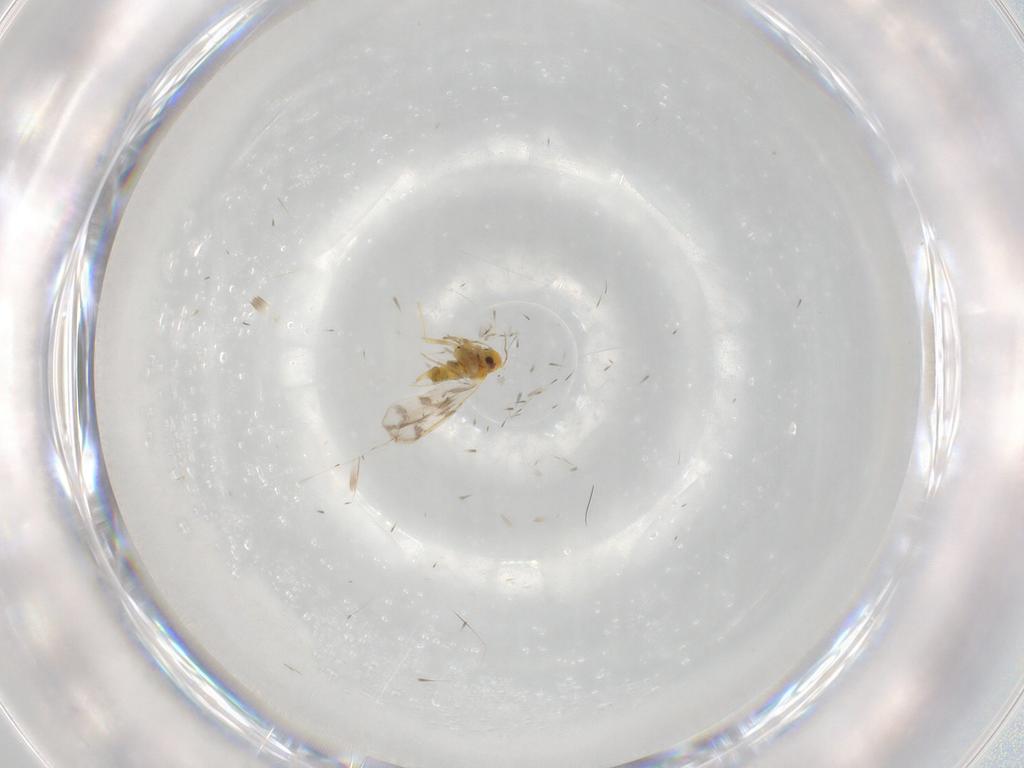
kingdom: Animalia
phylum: Arthropoda
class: Insecta
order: Hemiptera
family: Aleyrodidae
